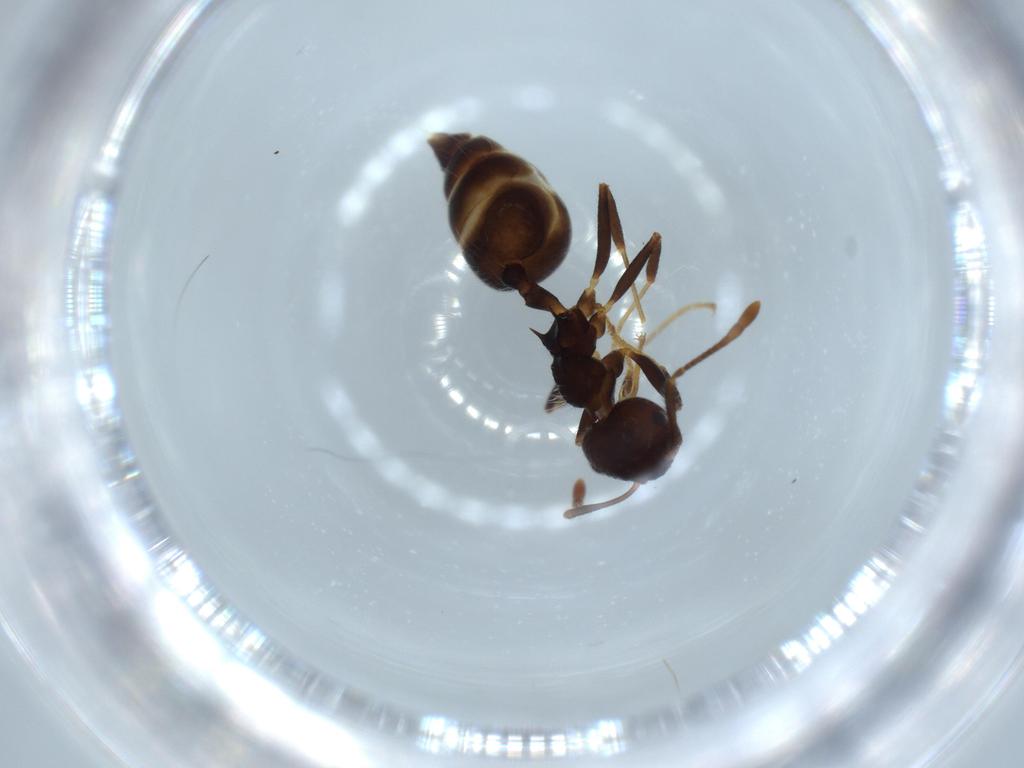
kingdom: Animalia
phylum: Arthropoda
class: Insecta
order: Hymenoptera
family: Formicidae
